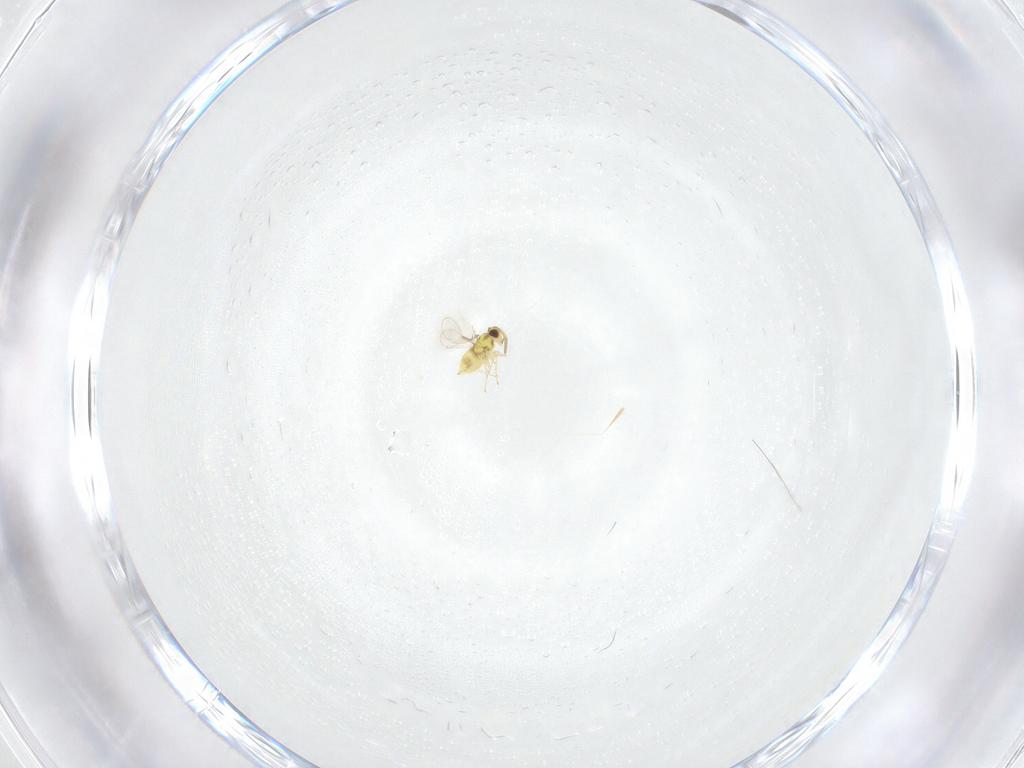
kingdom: Animalia
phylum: Arthropoda
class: Insecta
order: Hymenoptera
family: Aphelinidae
